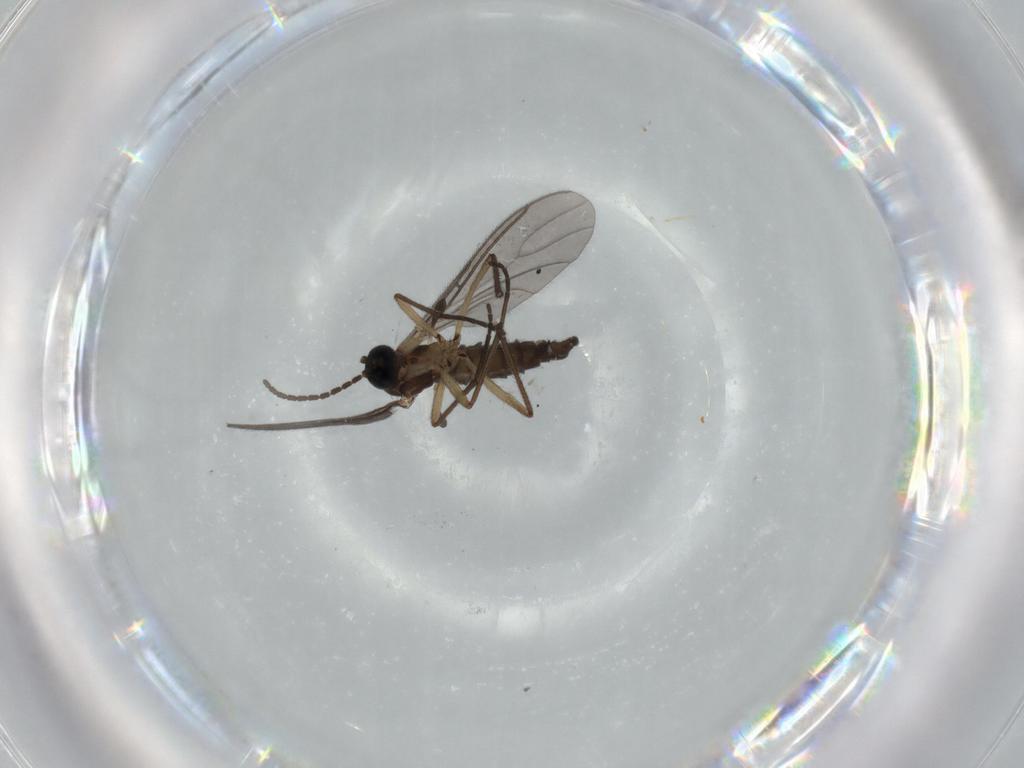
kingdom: Animalia
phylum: Arthropoda
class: Insecta
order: Diptera
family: Sciaridae
